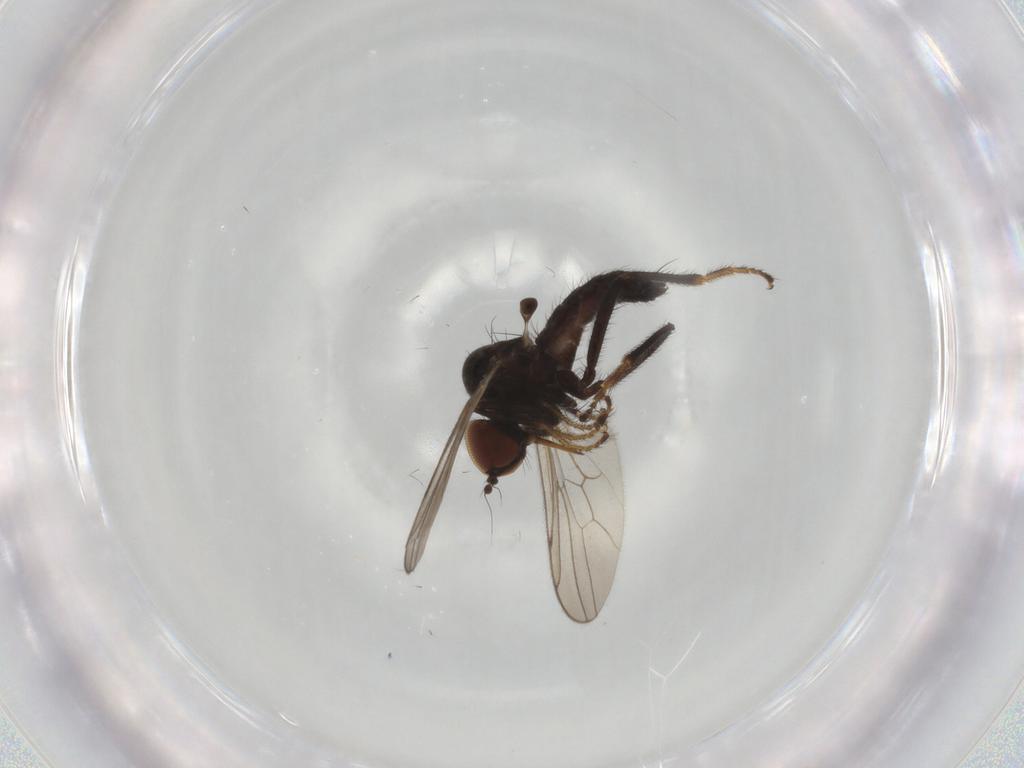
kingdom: Animalia
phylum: Arthropoda
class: Insecta
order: Diptera
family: Hybotidae
